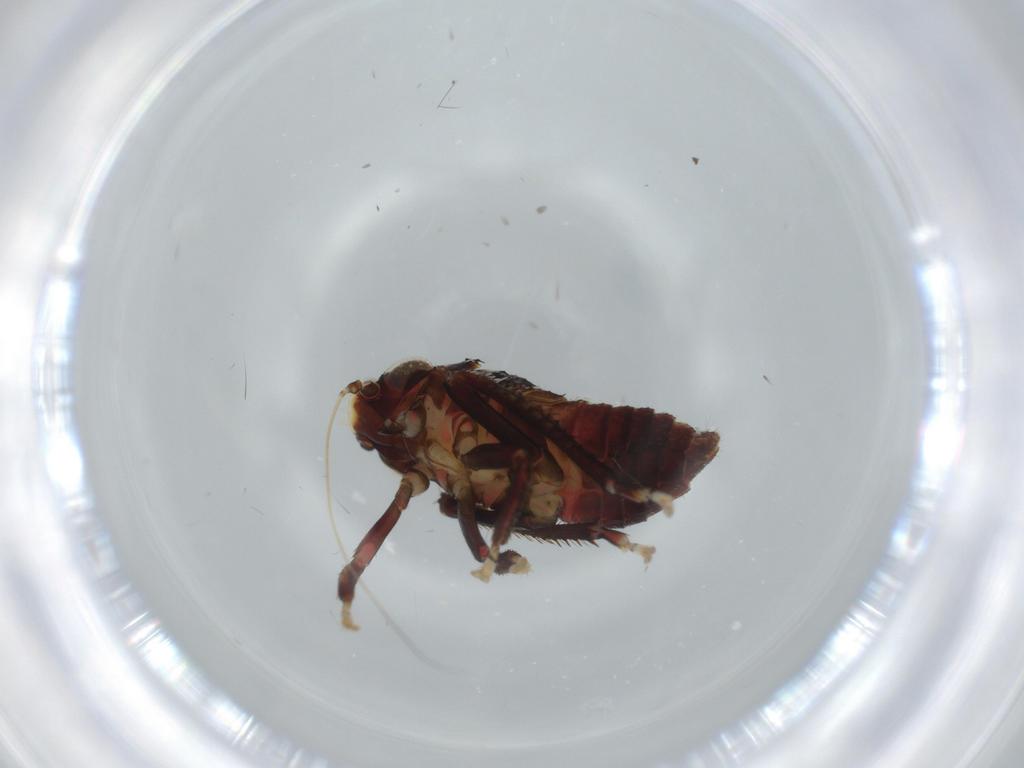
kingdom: Animalia
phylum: Arthropoda
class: Insecta
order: Hemiptera
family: Cicadellidae
